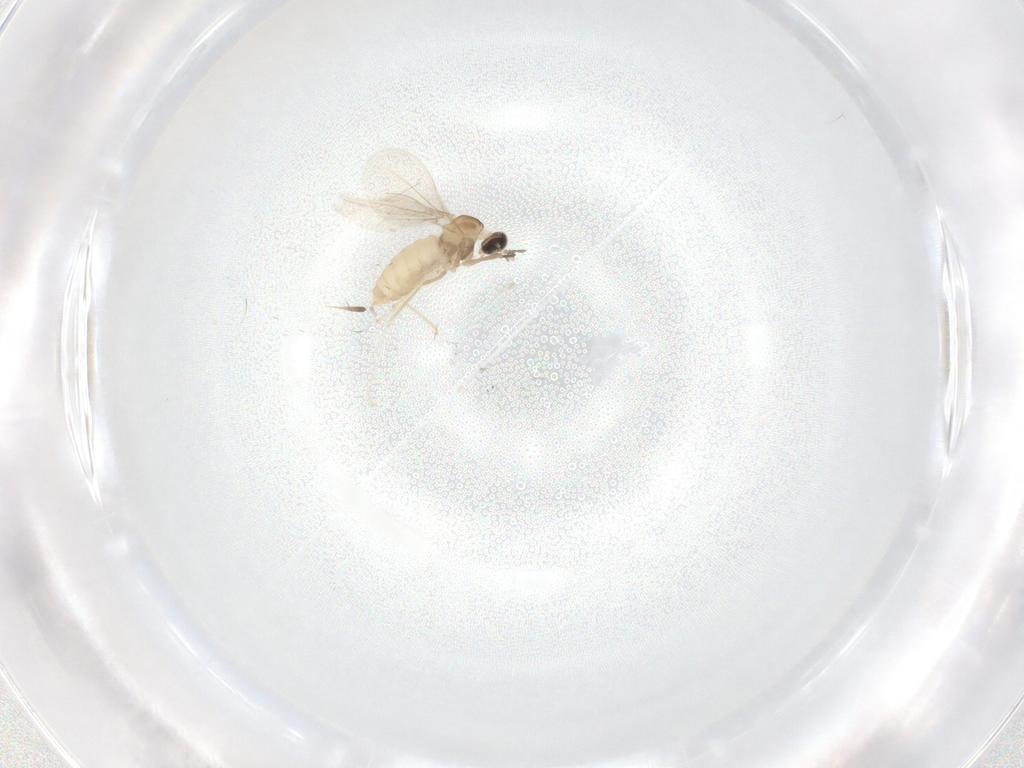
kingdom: Animalia
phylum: Arthropoda
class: Insecta
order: Diptera
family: Cecidomyiidae
